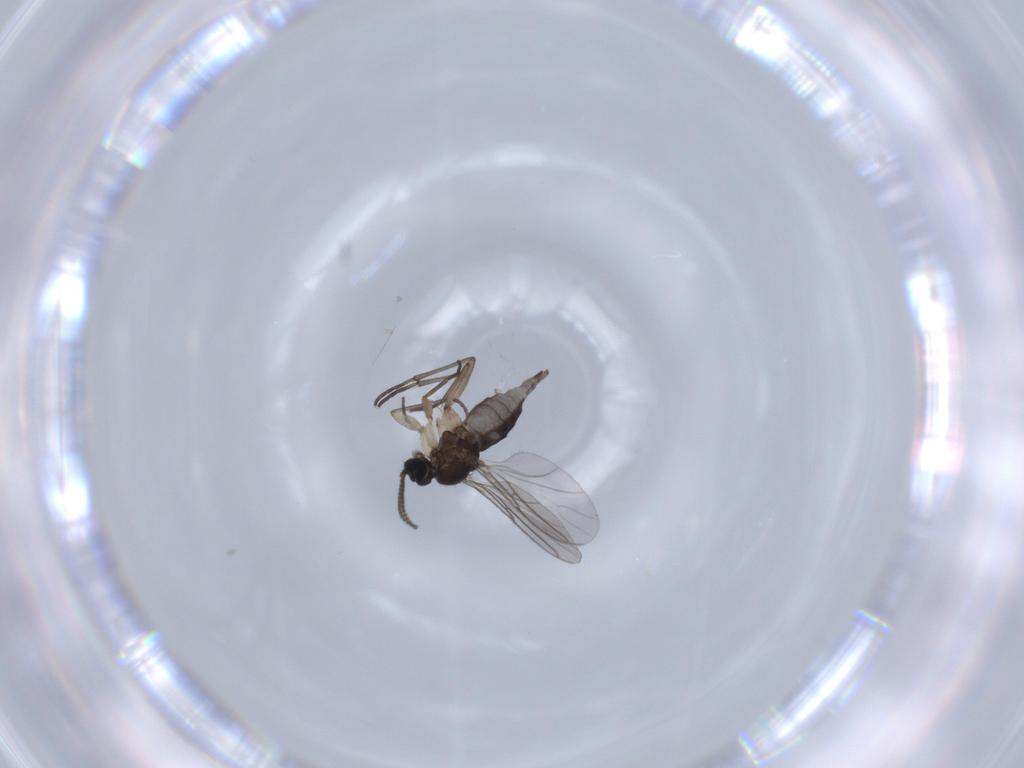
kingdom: Animalia
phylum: Arthropoda
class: Insecta
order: Diptera
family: Sciaridae
